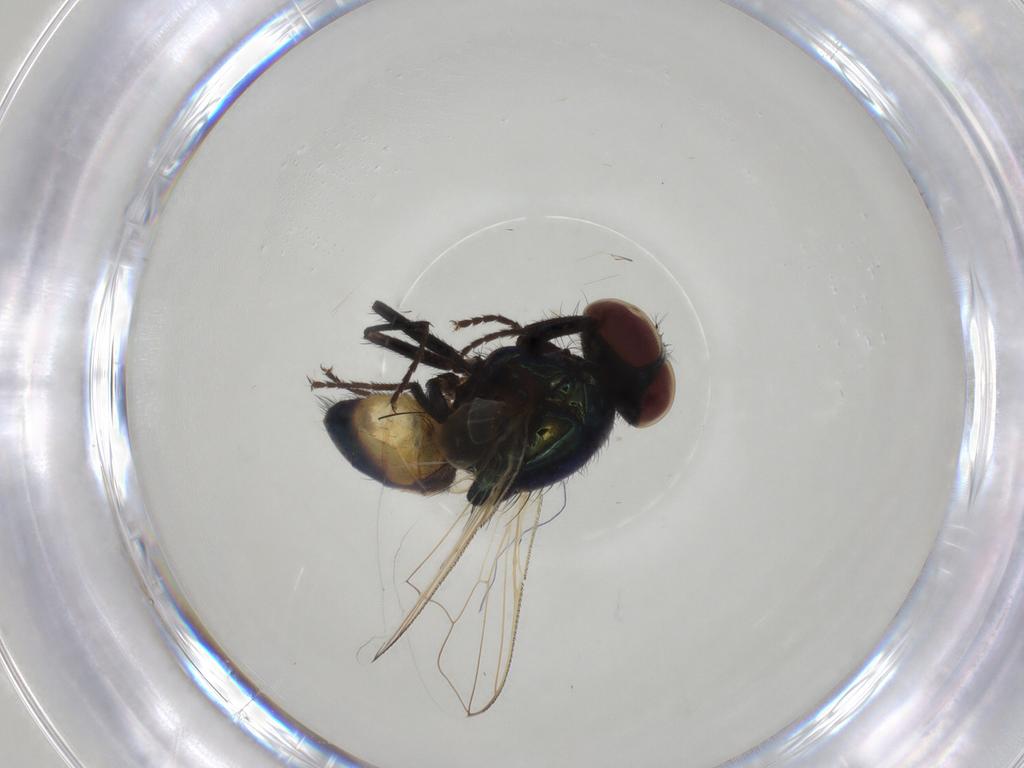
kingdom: Animalia
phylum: Arthropoda
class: Insecta
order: Diptera
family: Muscidae
